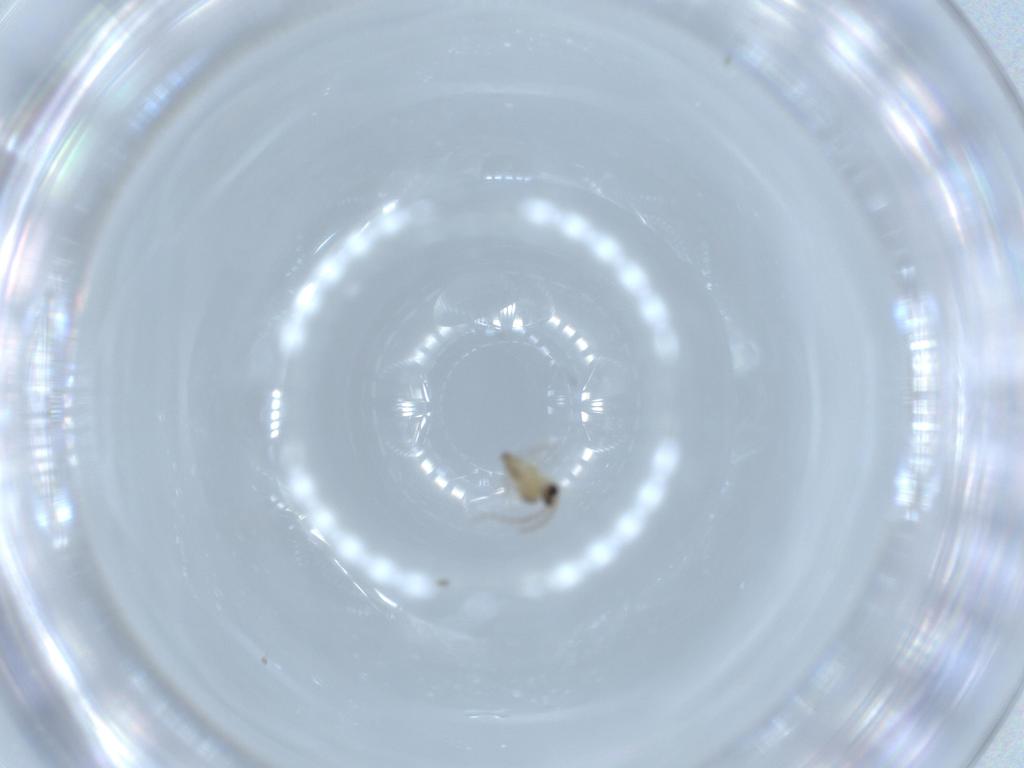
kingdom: Animalia
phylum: Arthropoda
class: Insecta
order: Diptera
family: Cecidomyiidae
